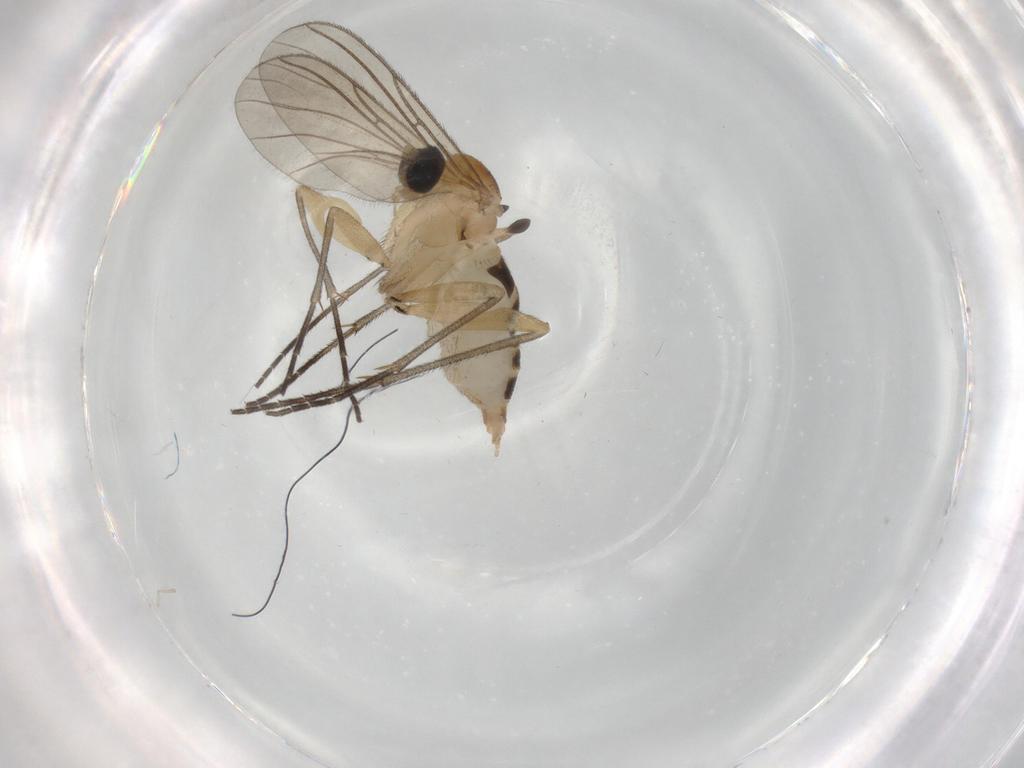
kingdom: Animalia
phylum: Arthropoda
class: Insecta
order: Diptera
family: Sciaridae
